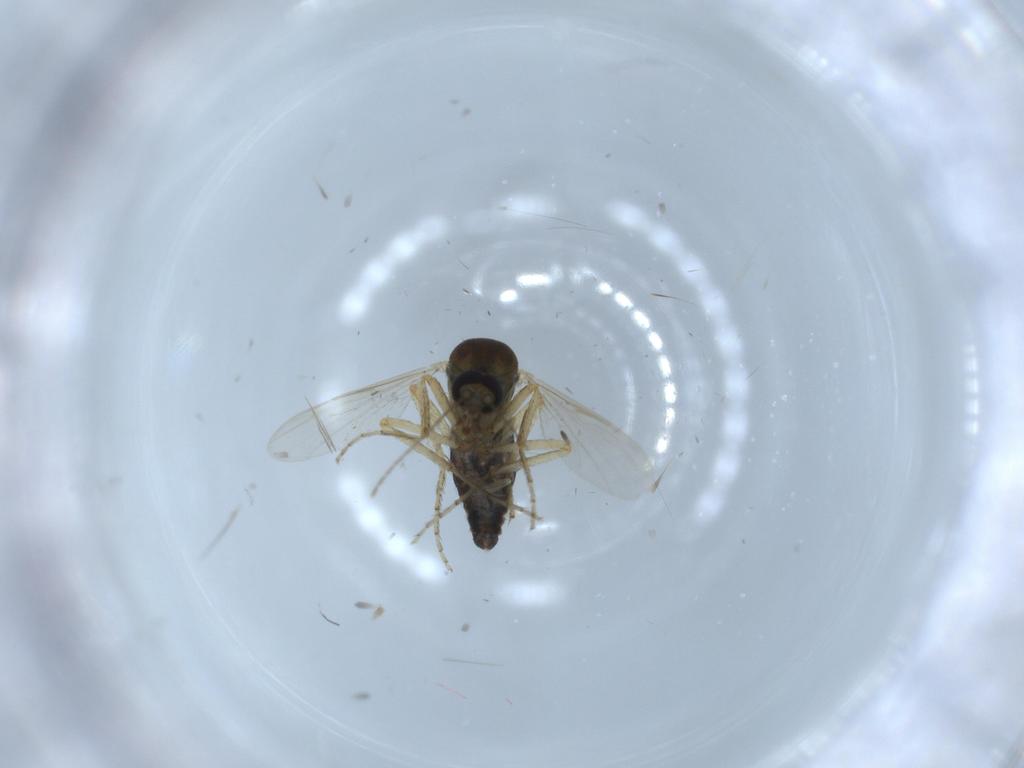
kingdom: Animalia
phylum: Arthropoda
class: Insecta
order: Diptera
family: Ceratopogonidae
